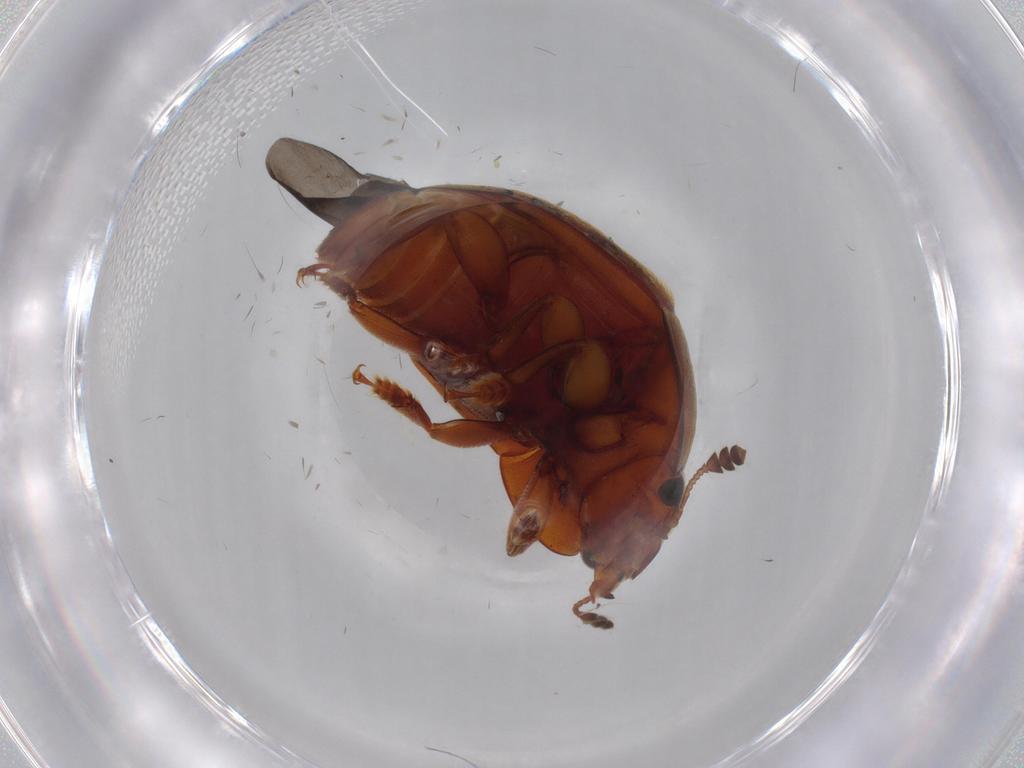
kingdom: Animalia
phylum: Arthropoda
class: Insecta
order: Coleoptera
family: Nitidulidae
